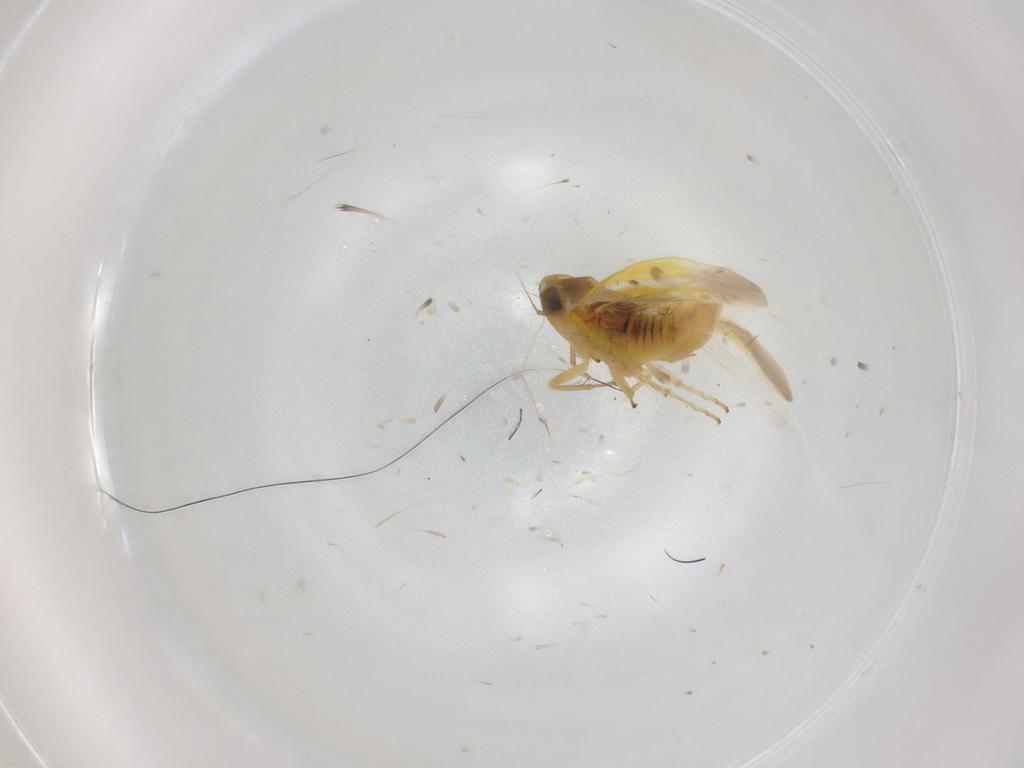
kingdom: Animalia
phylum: Arthropoda
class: Insecta
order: Hemiptera
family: Cicadellidae
